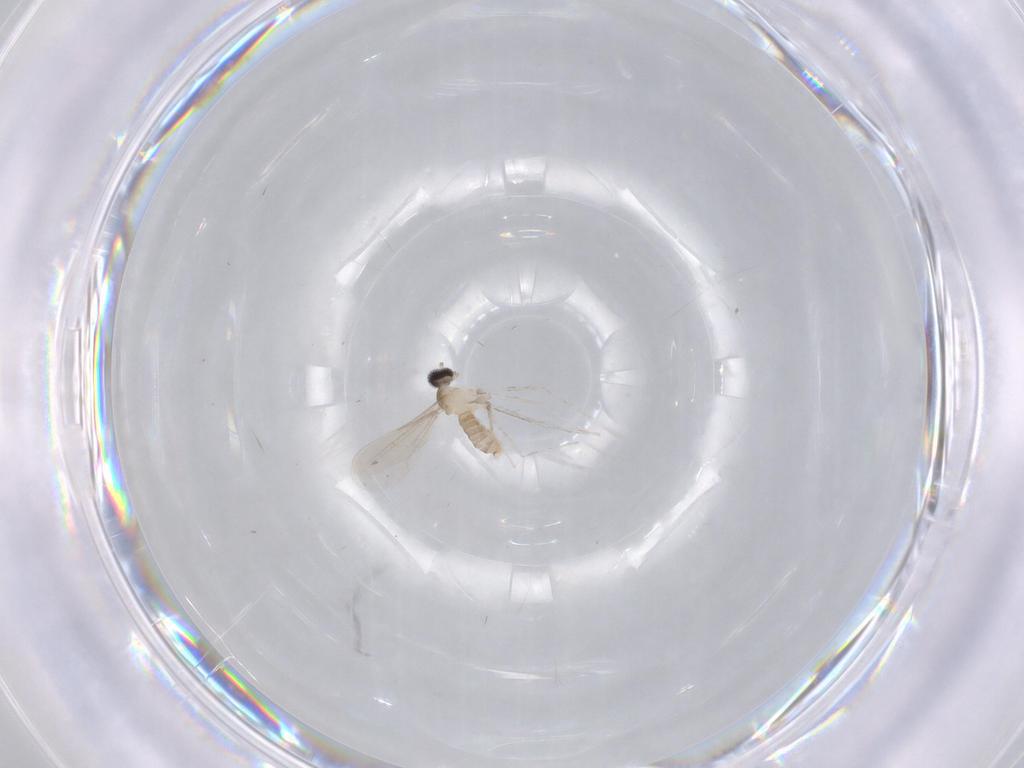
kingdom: Animalia
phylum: Arthropoda
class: Insecta
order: Diptera
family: Cecidomyiidae
